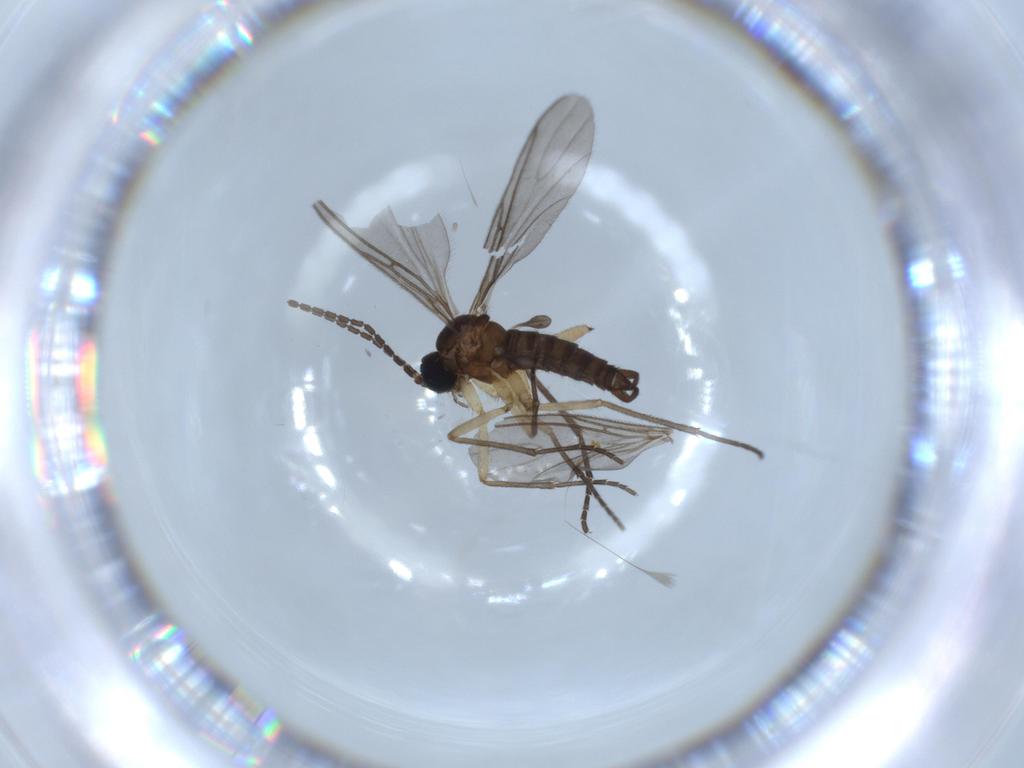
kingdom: Animalia
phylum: Arthropoda
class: Insecta
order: Diptera
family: Sciaridae
